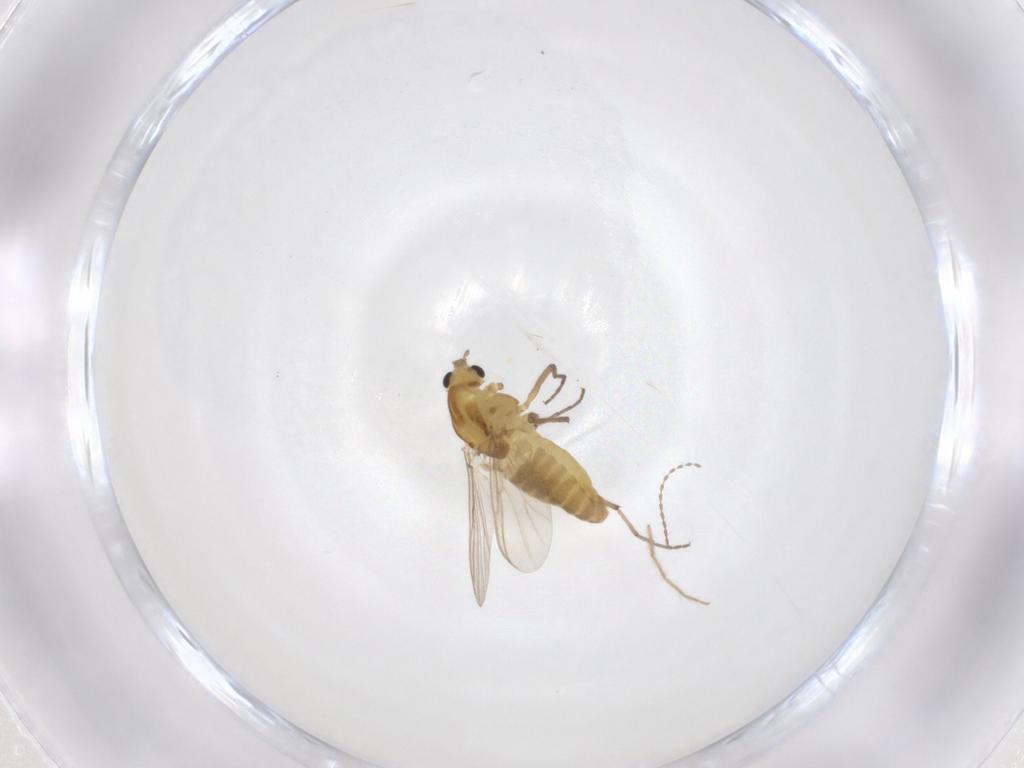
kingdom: Animalia
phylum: Arthropoda
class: Insecta
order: Diptera
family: Chironomidae
